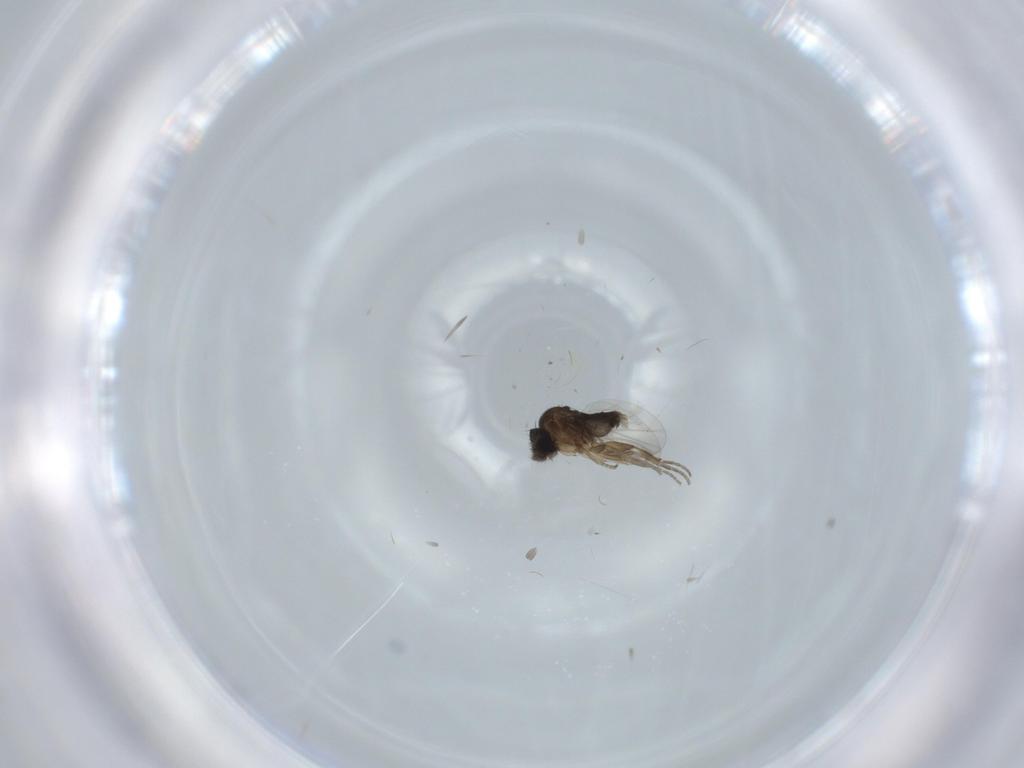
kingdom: Animalia
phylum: Arthropoda
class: Insecta
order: Diptera
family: Phoridae
